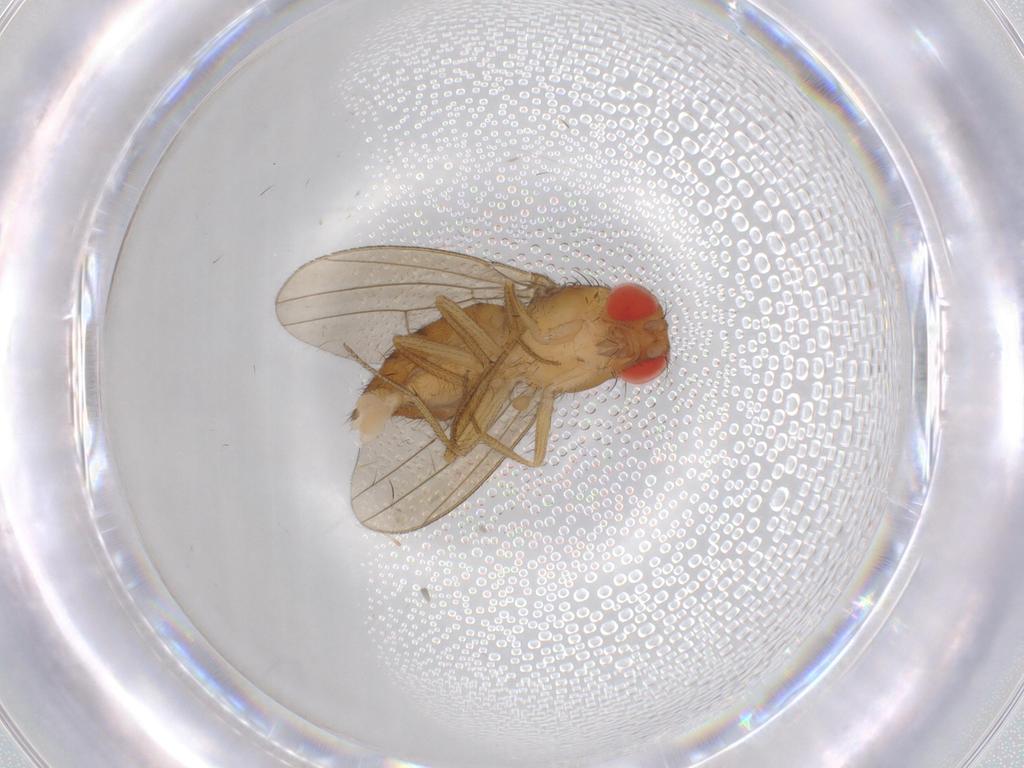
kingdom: Animalia
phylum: Arthropoda
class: Insecta
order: Diptera
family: Drosophilidae
